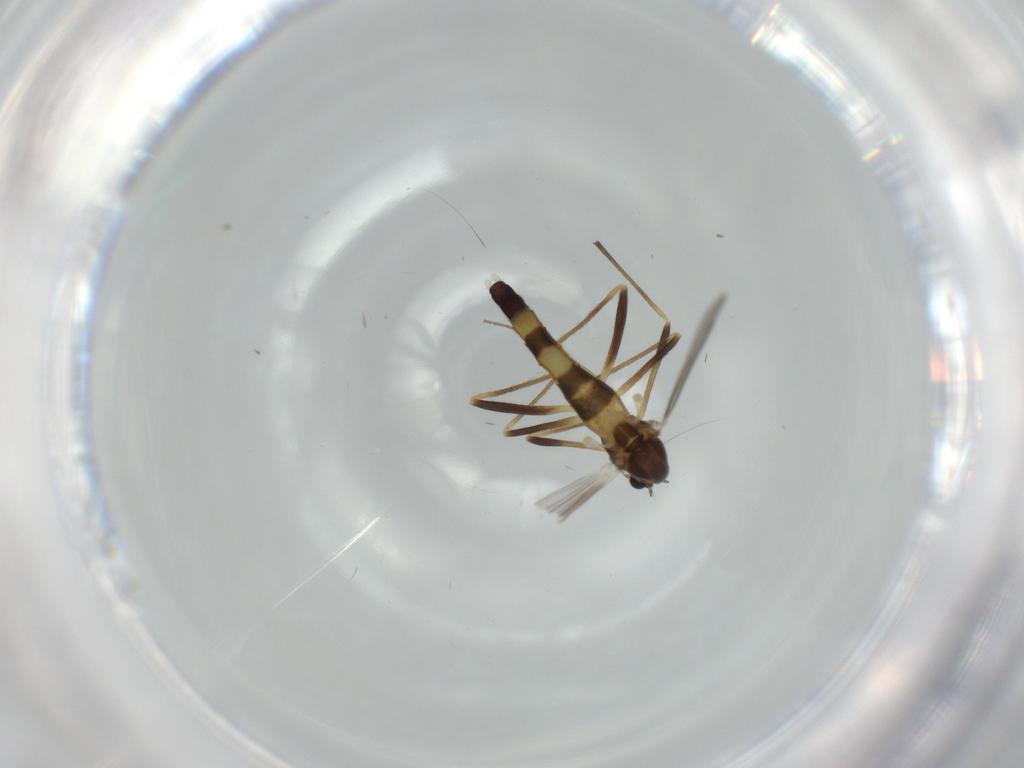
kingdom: Animalia
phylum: Arthropoda
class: Insecta
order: Diptera
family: Chironomidae
